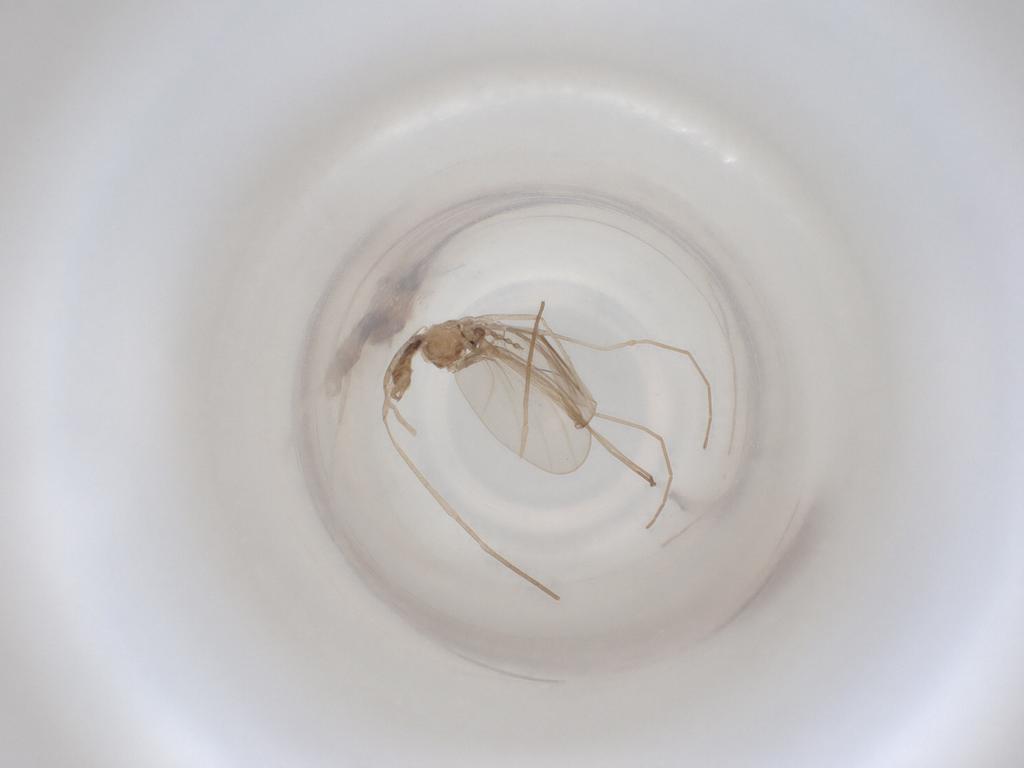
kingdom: Animalia
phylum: Arthropoda
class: Insecta
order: Diptera
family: Cecidomyiidae
